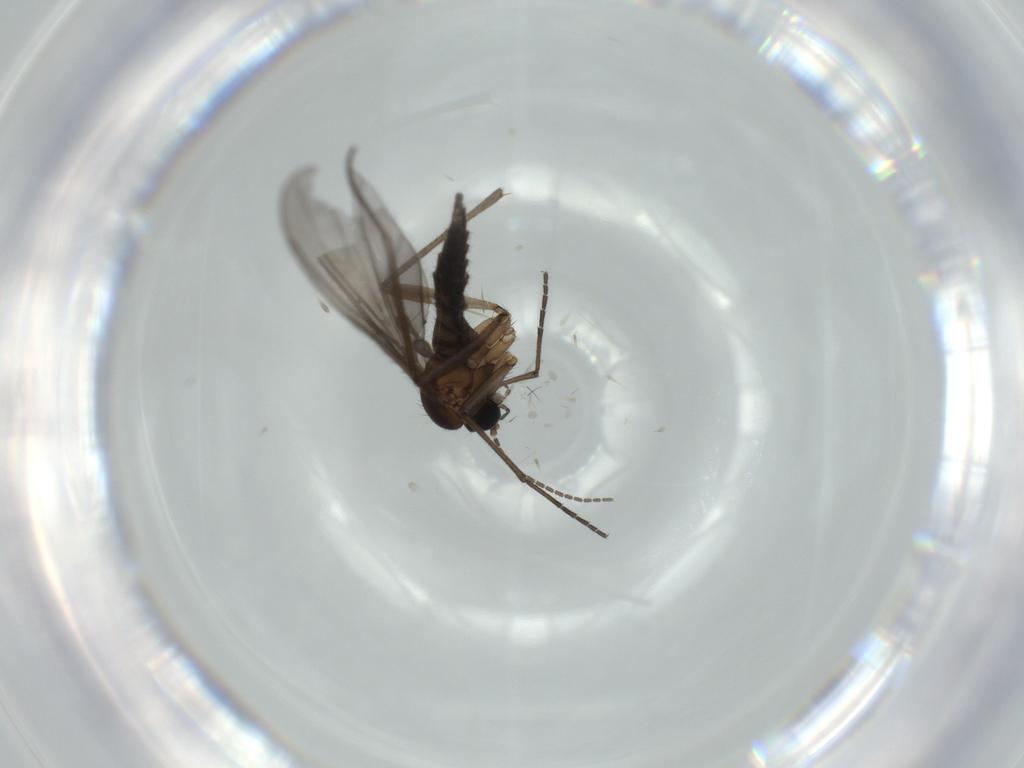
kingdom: Animalia
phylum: Arthropoda
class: Insecta
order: Diptera
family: Sciaridae
